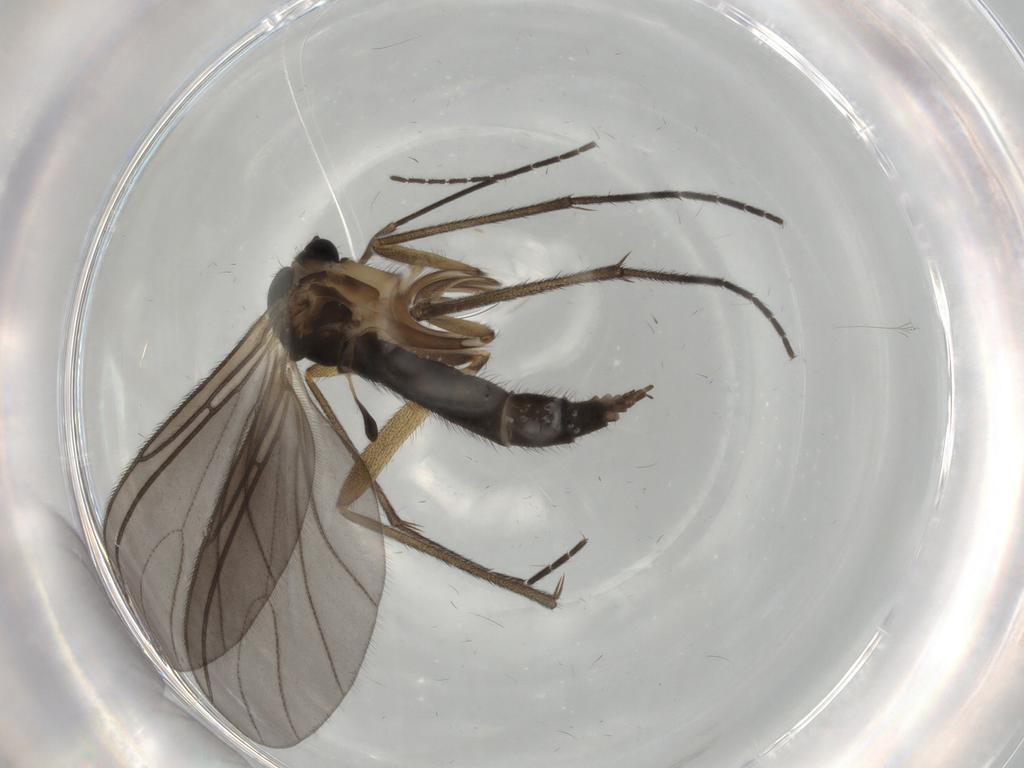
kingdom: Animalia
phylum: Arthropoda
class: Insecta
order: Diptera
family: Sciaridae
